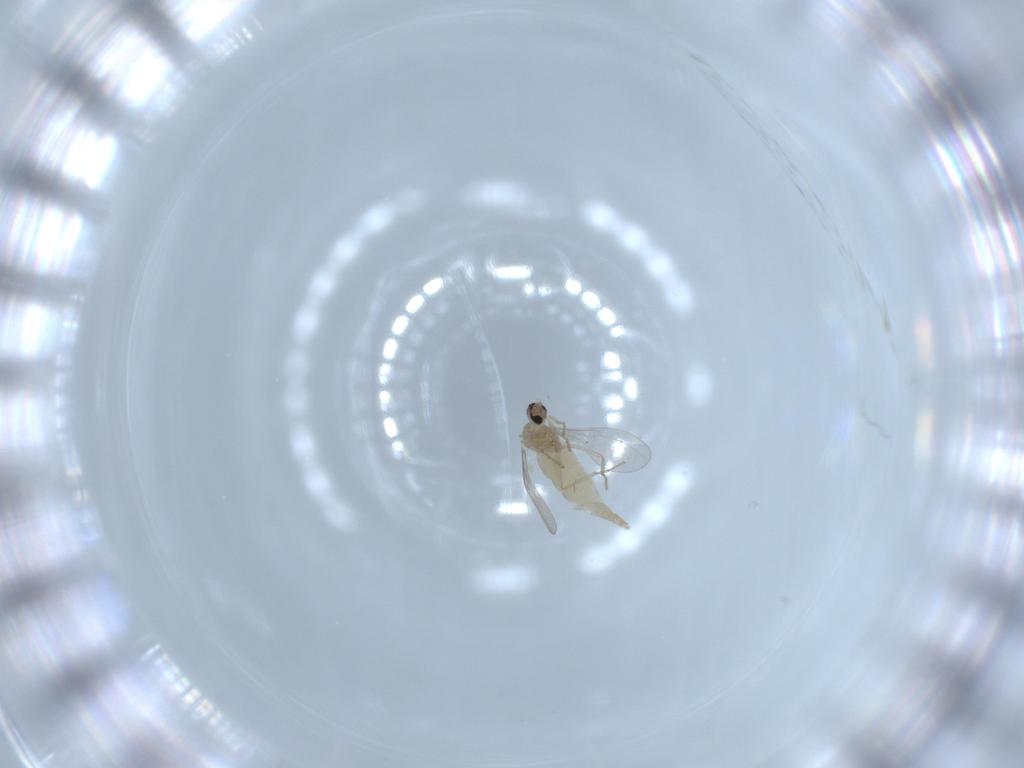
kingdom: Animalia
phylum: Arthropoda
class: Insecta
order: Diptera
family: Cecidomyiidae
